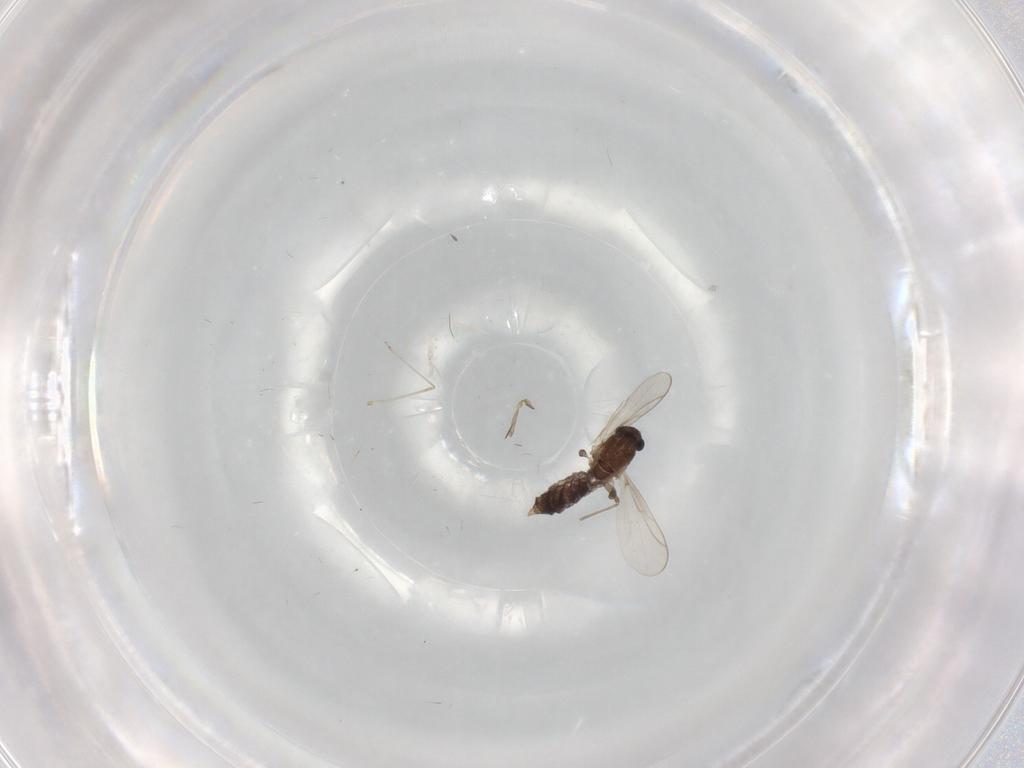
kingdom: Animalia
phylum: Arthropoda
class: Insecta
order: Diptera
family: Chironomidae
